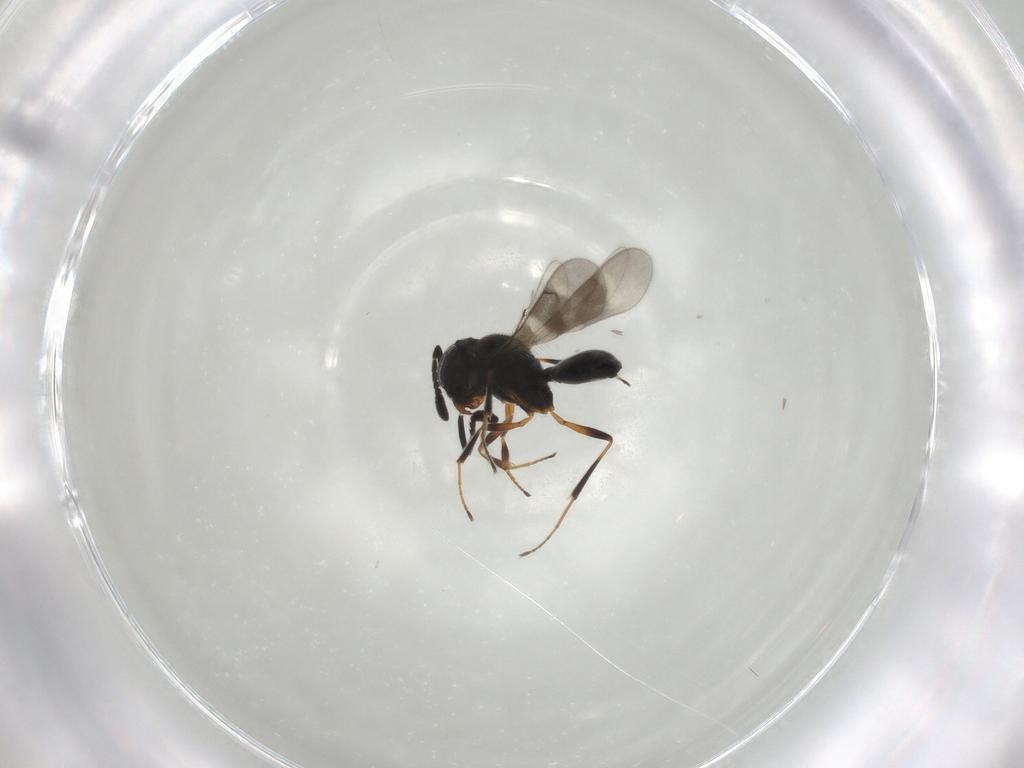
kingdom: Animalia
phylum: Arthropoda
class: Insecta
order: Hymenoptera
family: Scelionidae
